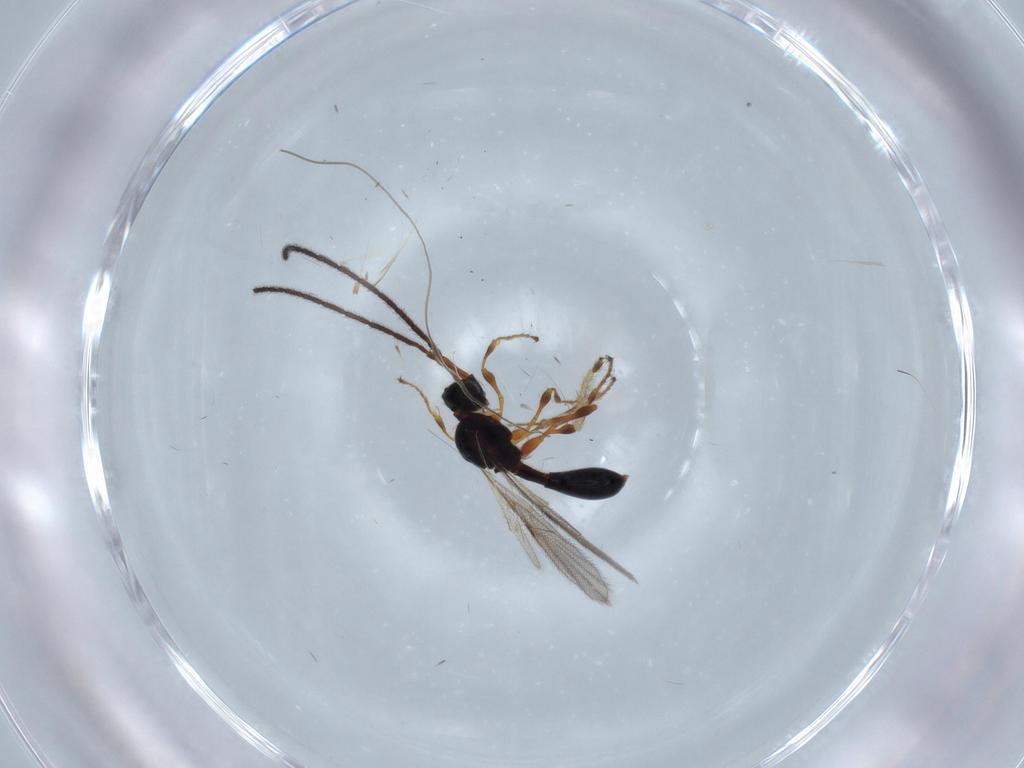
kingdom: Animalia
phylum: Arthropoda
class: Insecta
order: Hymenoptera
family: Diapriidae
